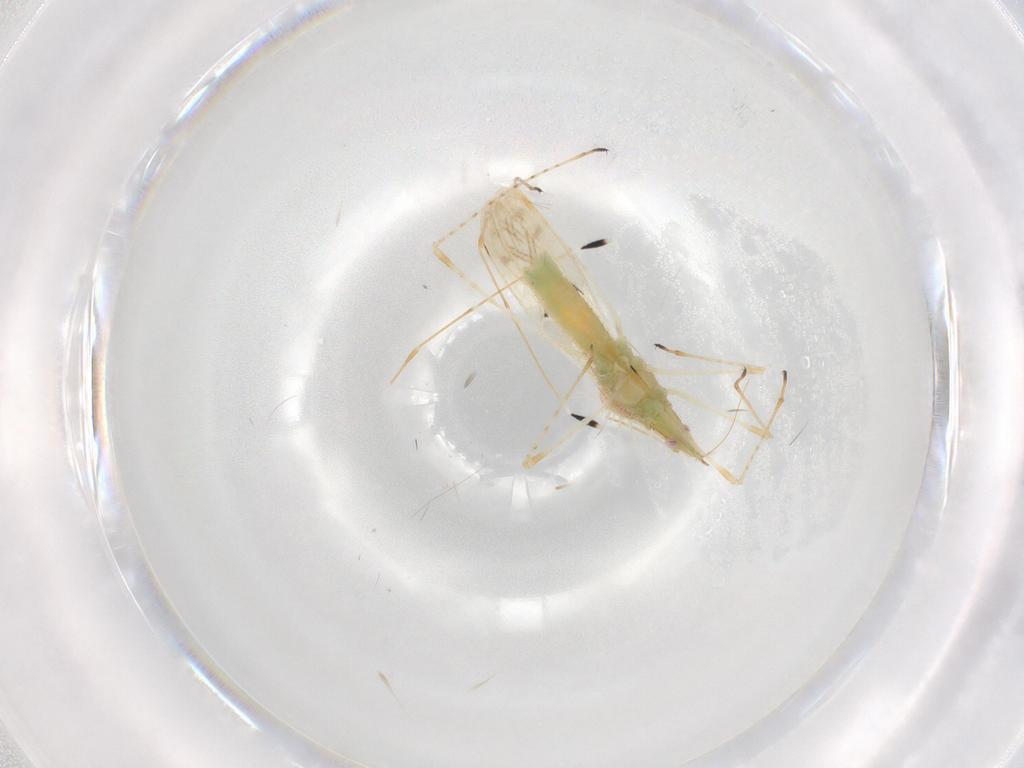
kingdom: Animalia
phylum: Arthropoda
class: Insecta
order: Hemiptera
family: Berytidae
